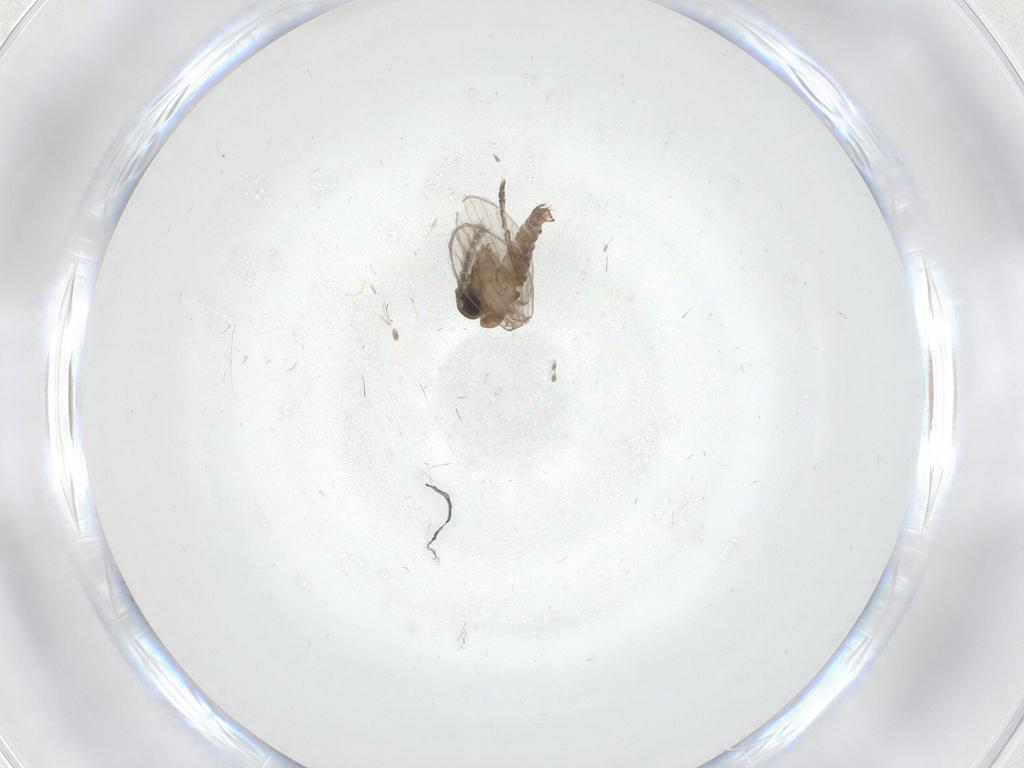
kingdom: Animalia
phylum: Arthropoda
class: Insecta
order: Diptera
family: Psychodidae
